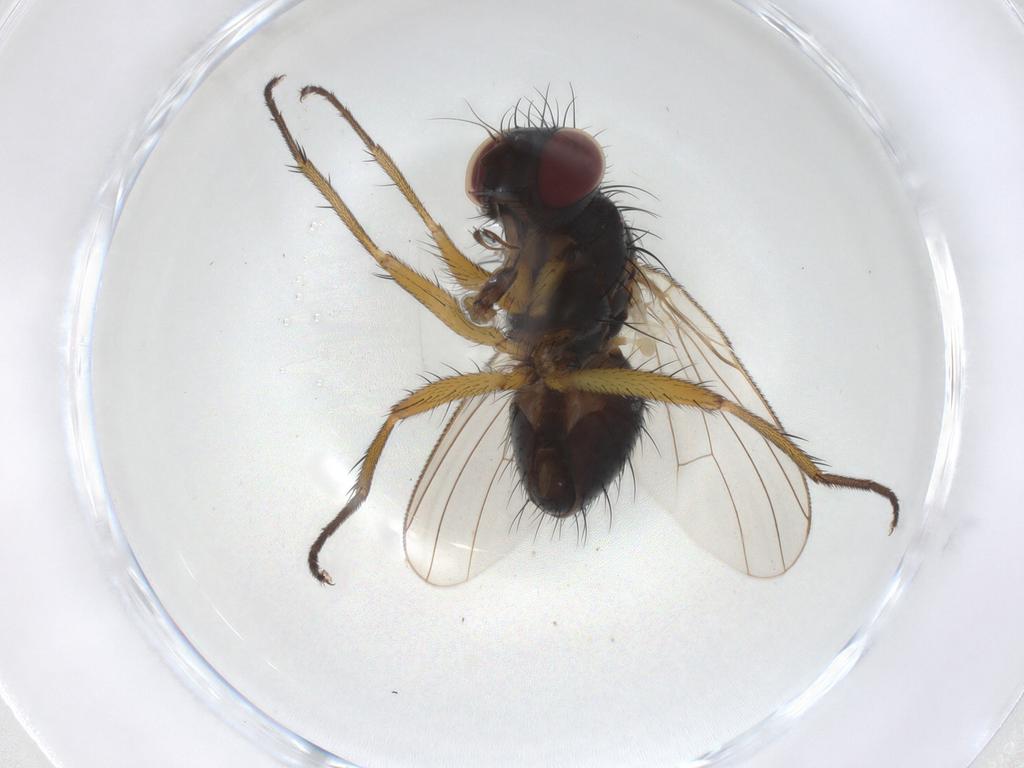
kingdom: Animalia
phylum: Arthropoda
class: Insecta
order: Diptera
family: Muscidae
